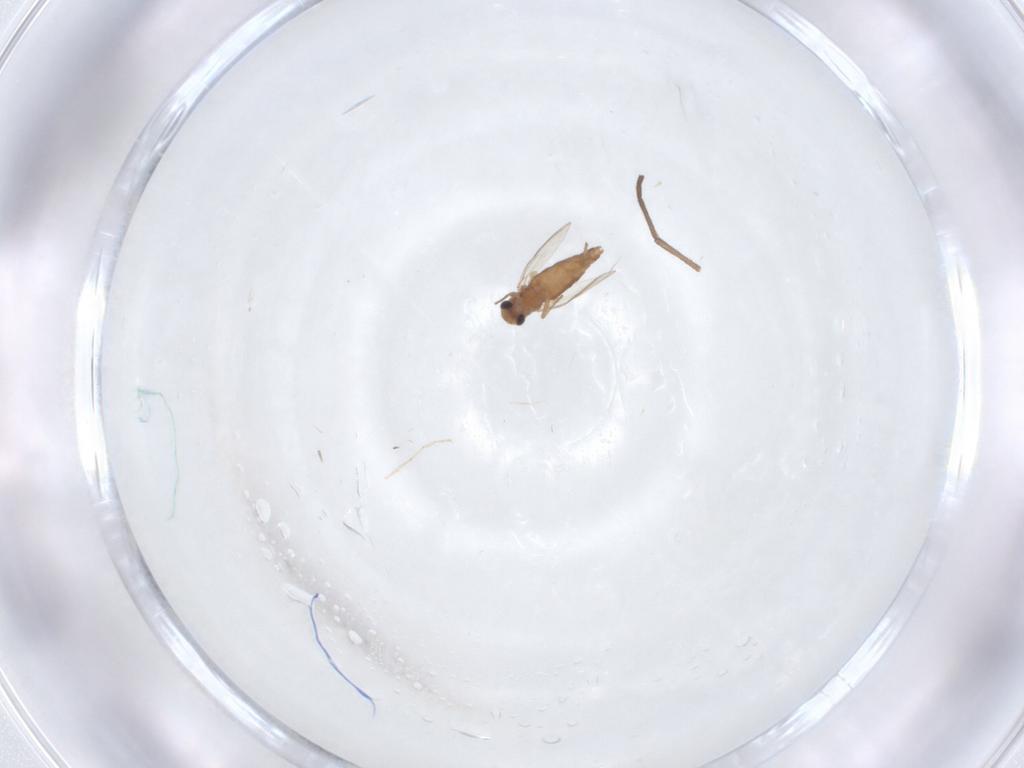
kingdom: Animalia
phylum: Arthropoda
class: Insecta
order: Diptera
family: Sciaridae
